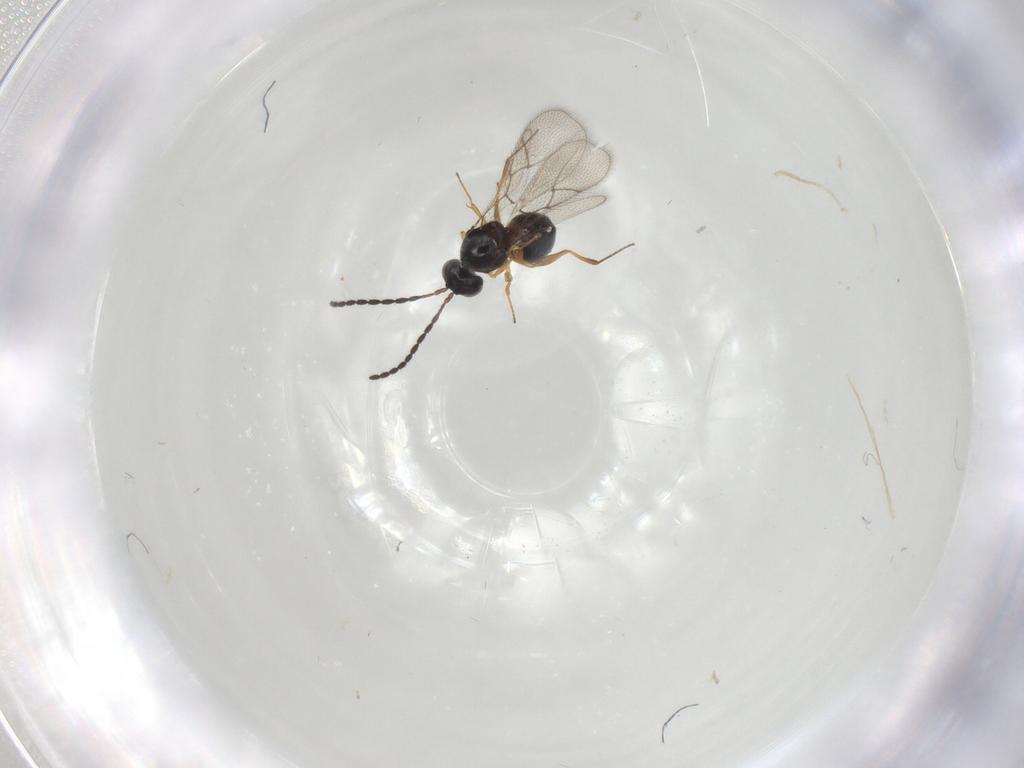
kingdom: Animalia
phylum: Arthropoda
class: Insecta
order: Hymenoptera
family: Figitidae
